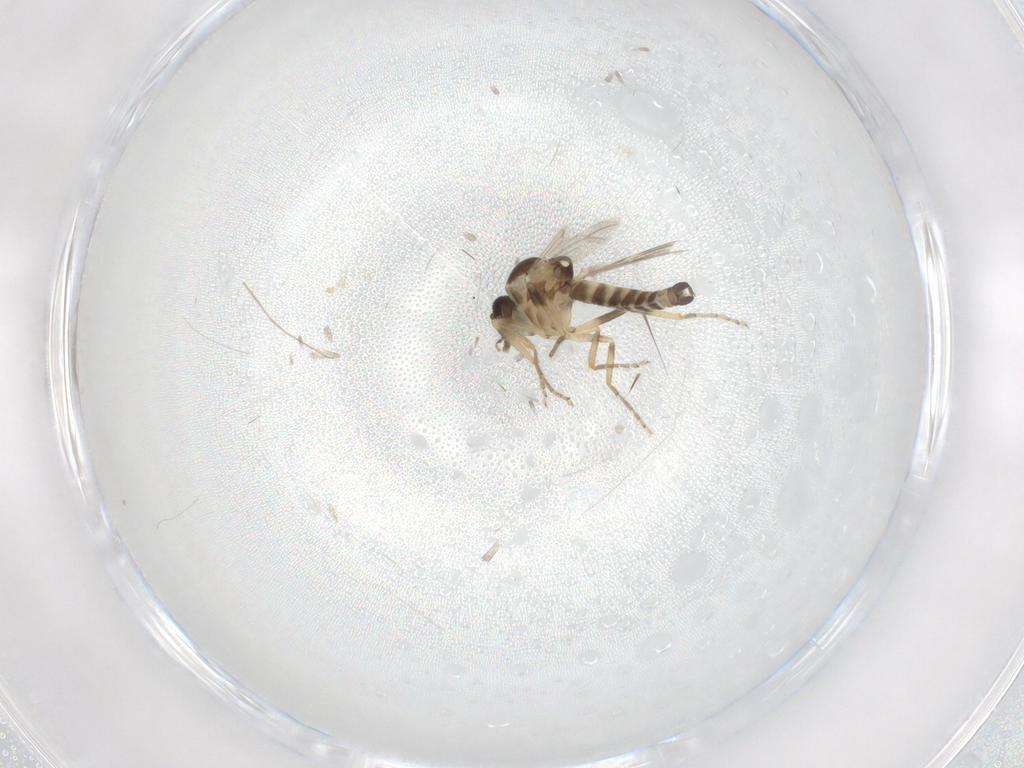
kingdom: Animalia
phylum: Arthropoda
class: Insecta
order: Diptera
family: Ceratopogonidae
